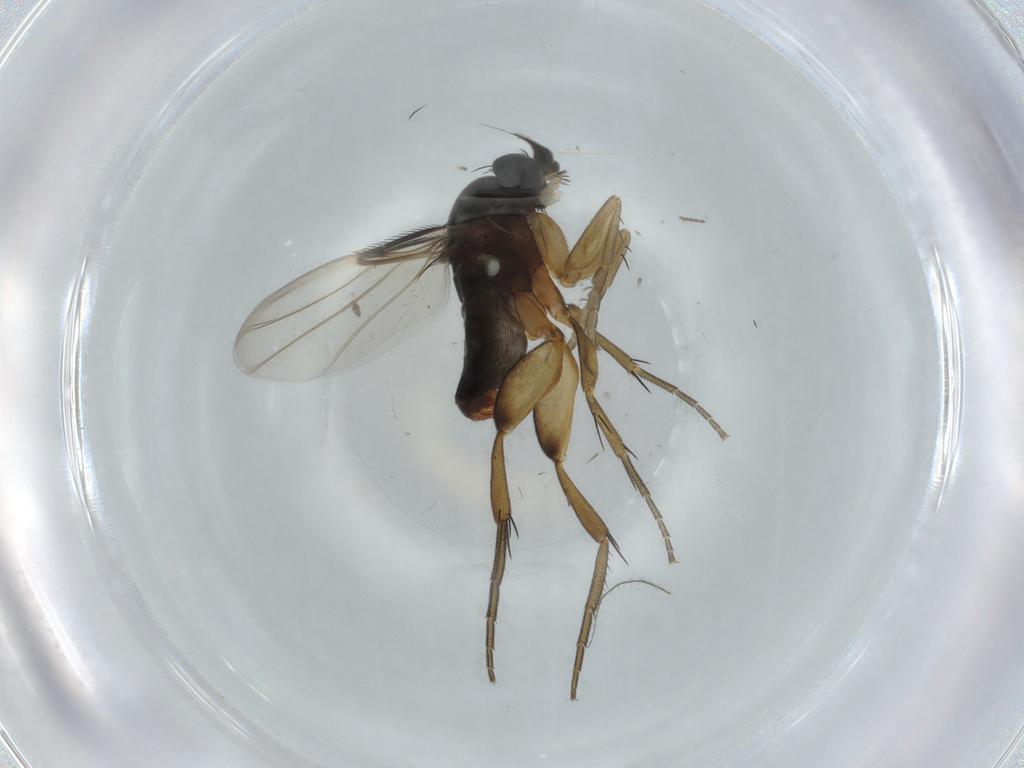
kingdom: Animalia
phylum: Arthropoda
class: Insecta
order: Diptera
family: Phoridae
